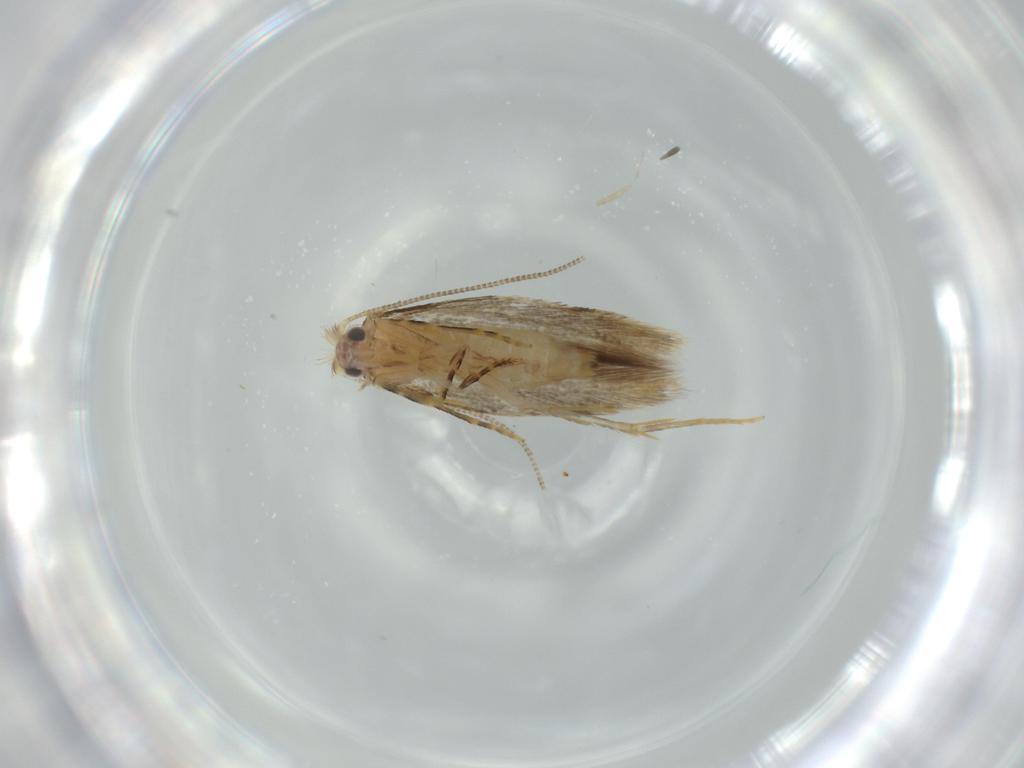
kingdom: Animalia
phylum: Arthropoda
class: Insecta
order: Lepidoptera
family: Tineidae
